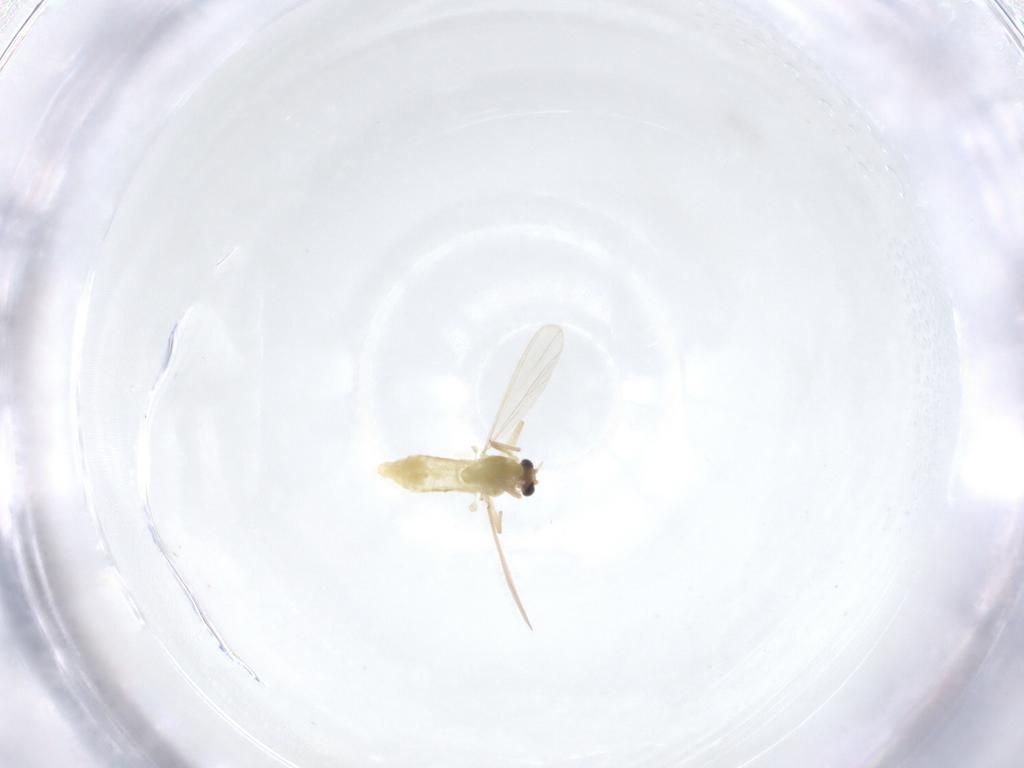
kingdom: Animalia
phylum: Arthropoda
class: Insecta
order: Diptera
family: Chironomidae
